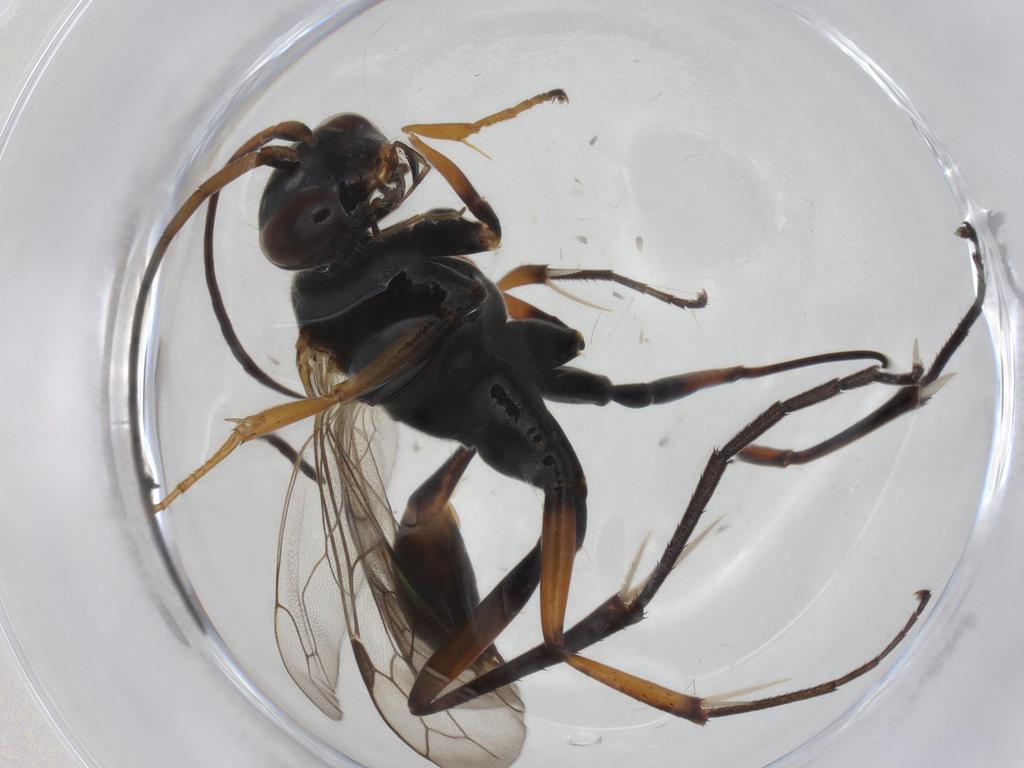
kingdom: Animalia
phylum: Arthropoda
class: Insecta
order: Hymenoptera
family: Pompilidae
